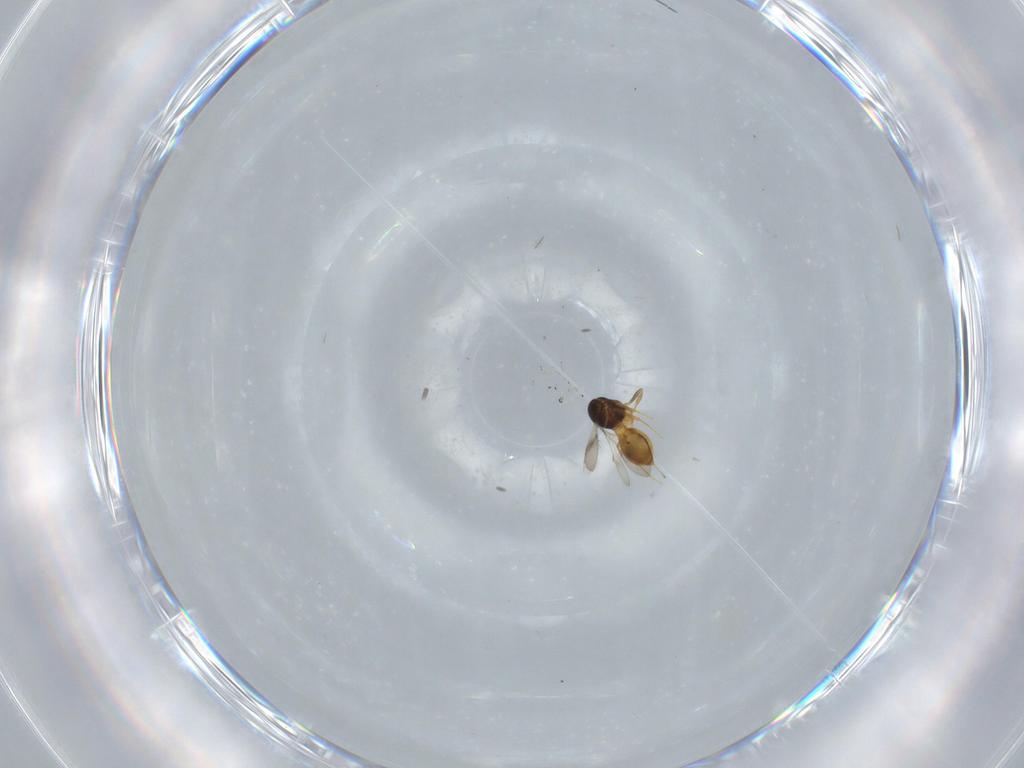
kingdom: Animalia
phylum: Arthropoda
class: Insecta
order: Hymenoptera
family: Scelionidae
